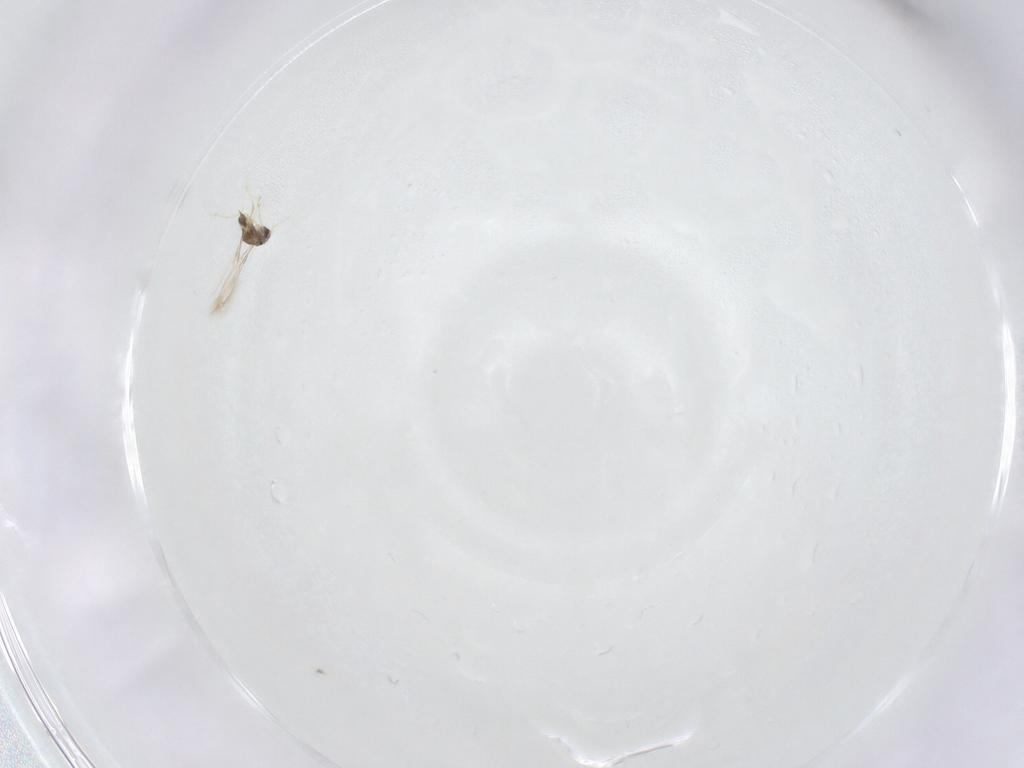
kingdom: Animalia
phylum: Arthropoda
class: Insecta
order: Hymenoptera
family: Mymaridae
